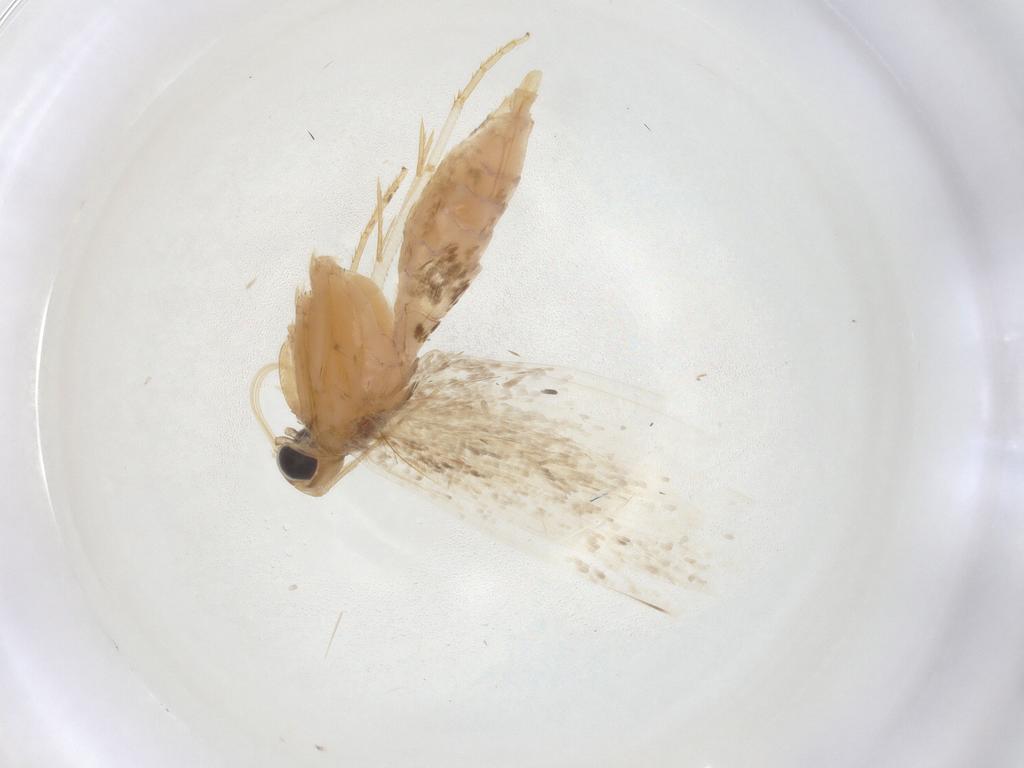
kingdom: Animalia
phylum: Arthropoda
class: Insecta
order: Lepidoptera
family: Gelechiidae
